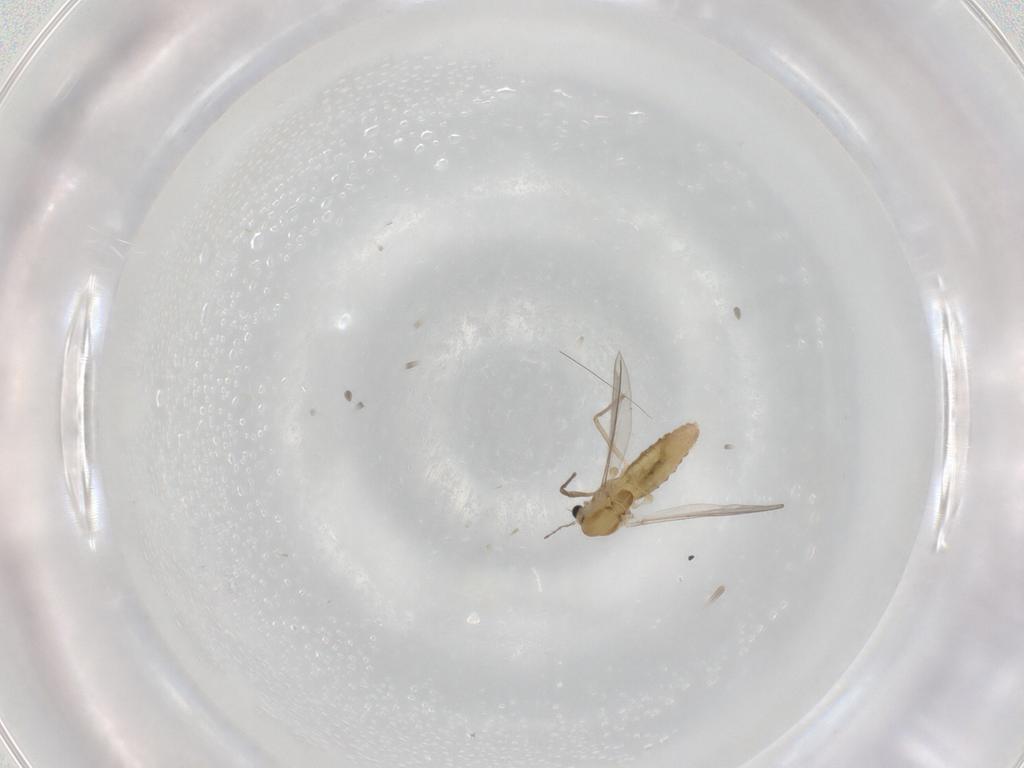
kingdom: Animalia
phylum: Arthropoda
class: Insecta
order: Diptera
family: Chironomidae
